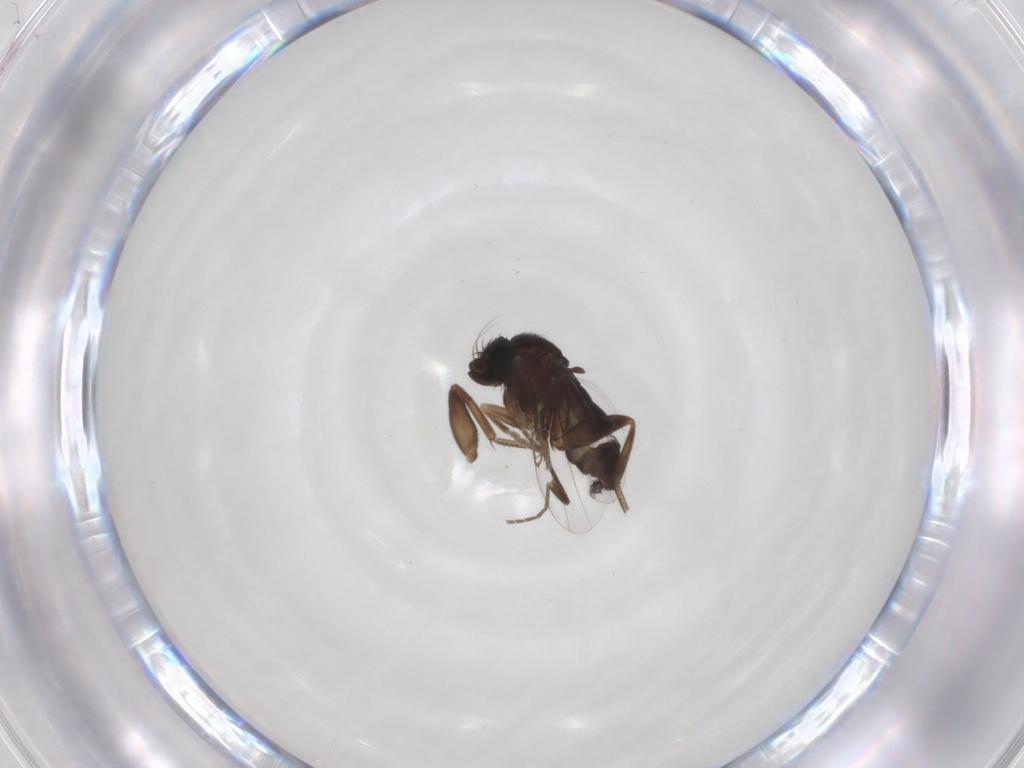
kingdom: Animalia
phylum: Arthropoda
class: Insecta
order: Diptera
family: Phoridae
